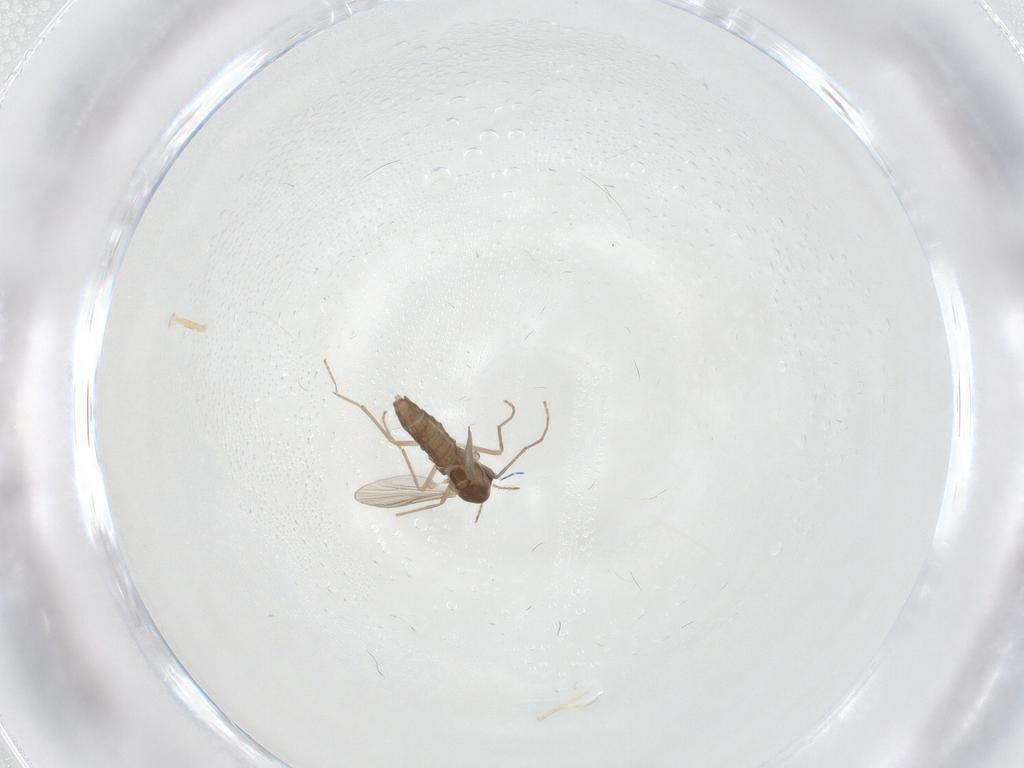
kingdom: Animalia
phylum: Arthropoda
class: Insecta
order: Diptera
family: Chironomidae
